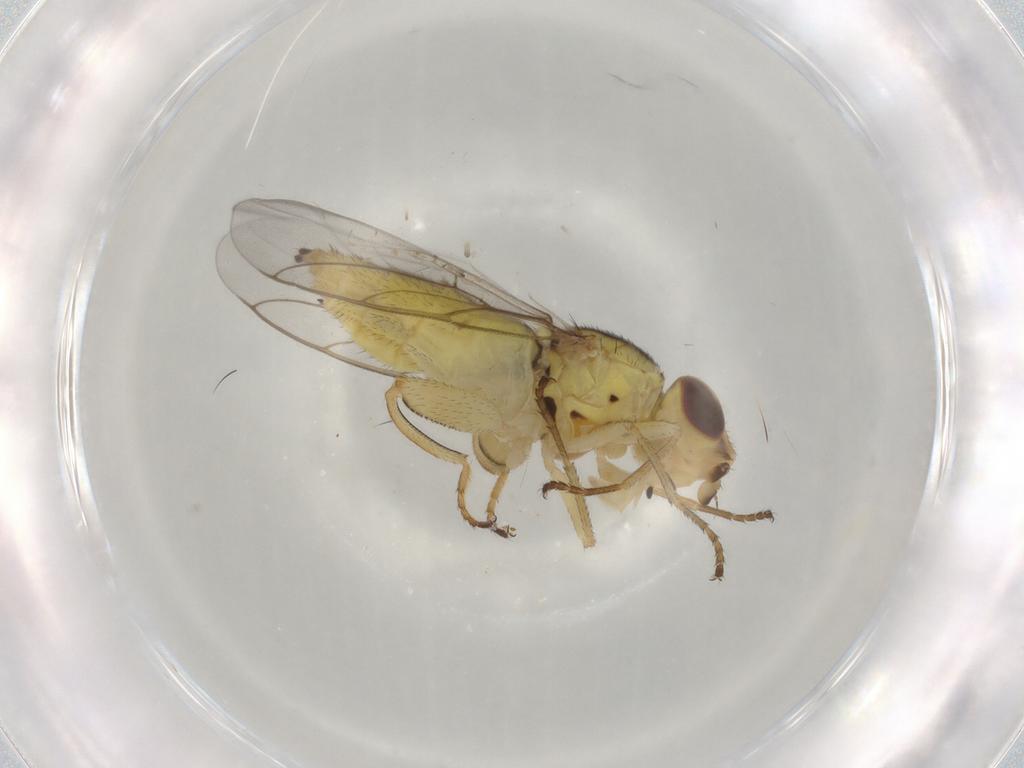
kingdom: Animalia
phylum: Arthropoda
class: Insecta
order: Diptera
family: Chloropidae
